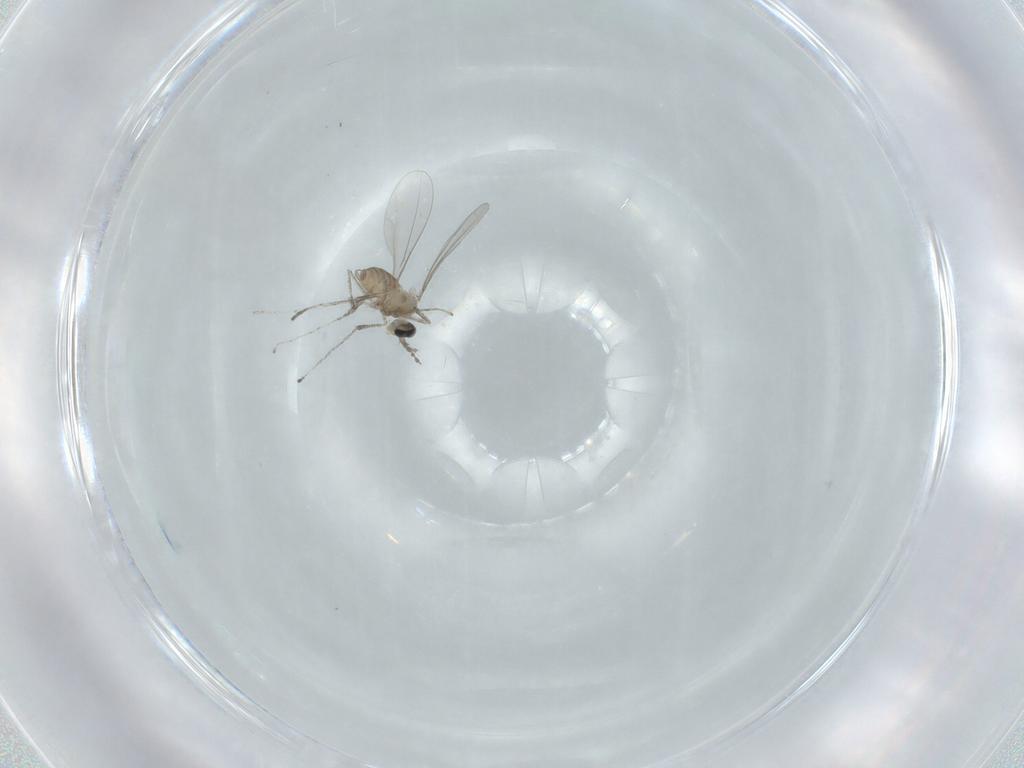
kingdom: Animalia
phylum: Arthropoda
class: Insecta
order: Diptera
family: Cecidomyiidae
